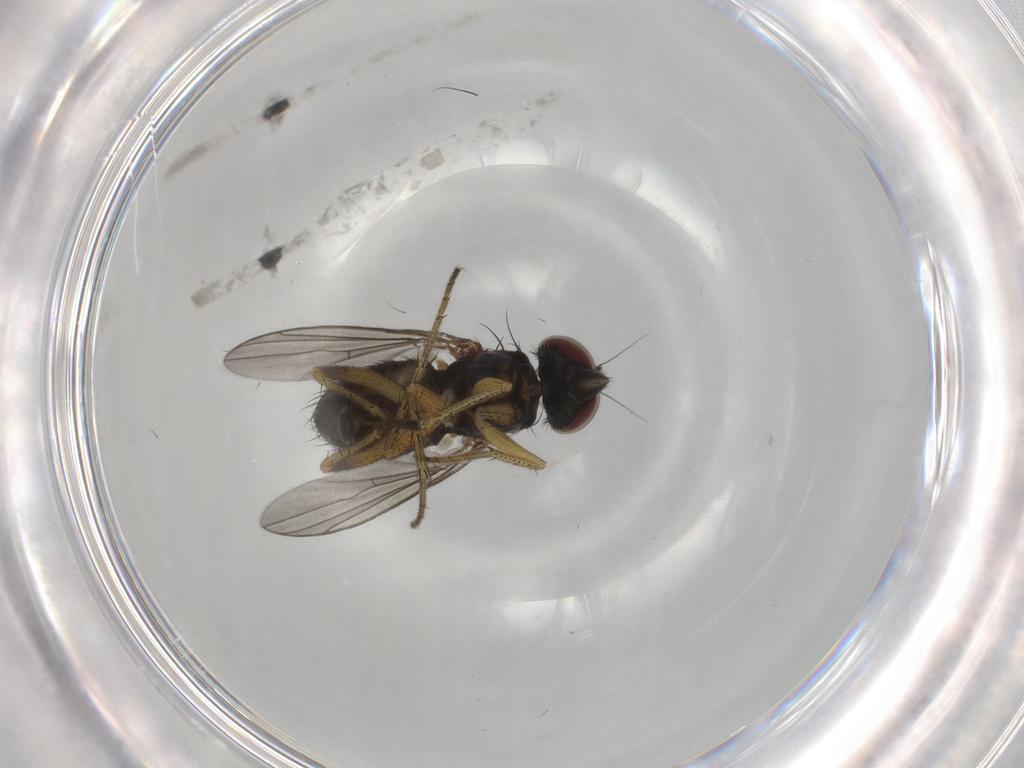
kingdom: Animalia
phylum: Arthropoda
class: Insecta
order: Diptera
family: Dolichopodidae
